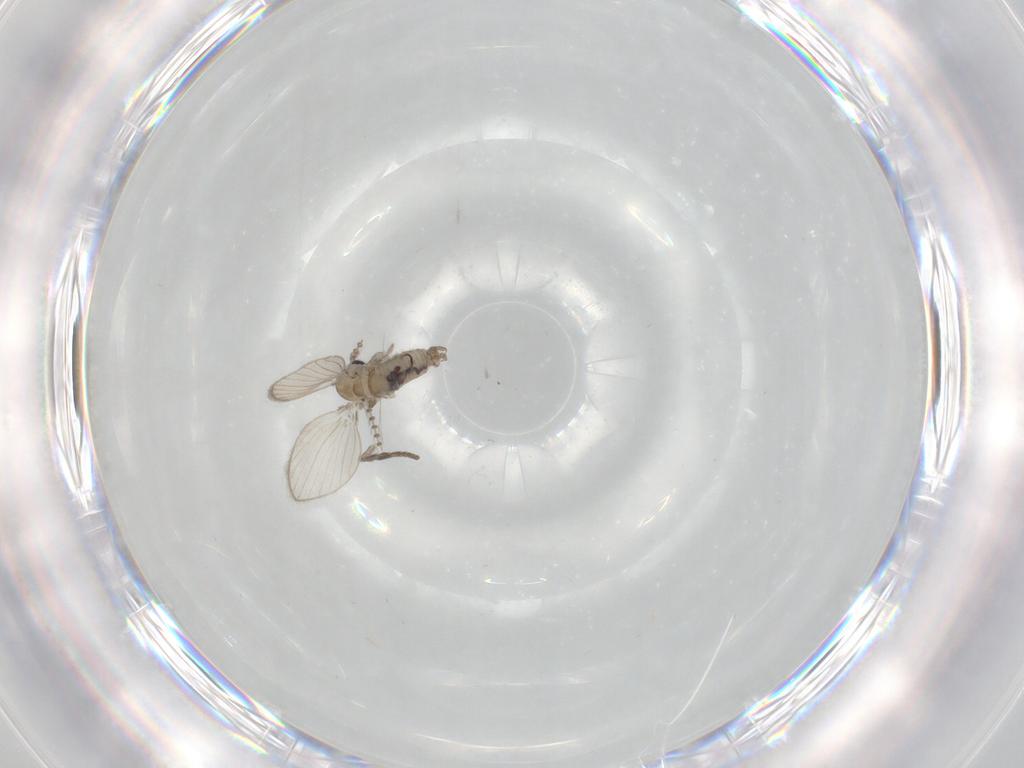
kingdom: Animalia
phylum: Arthropoda
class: Insecta
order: Diptera
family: Psychodidae
